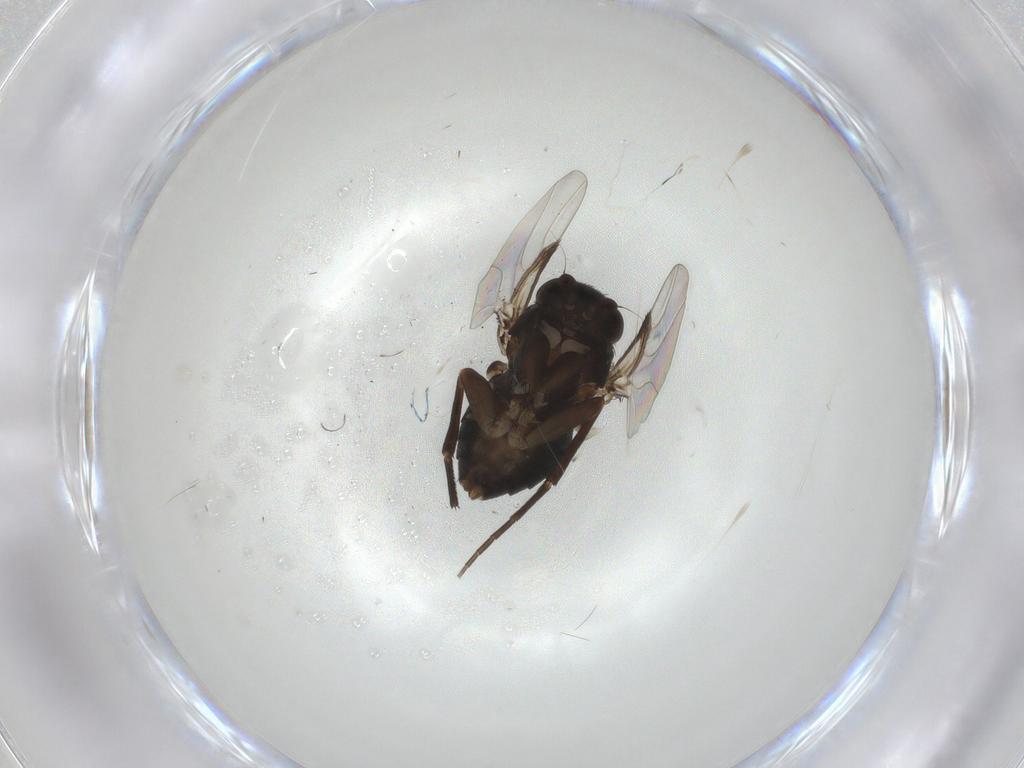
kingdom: Animalia
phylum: Arthropoda
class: Insecta
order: Diptera
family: Phoridae
